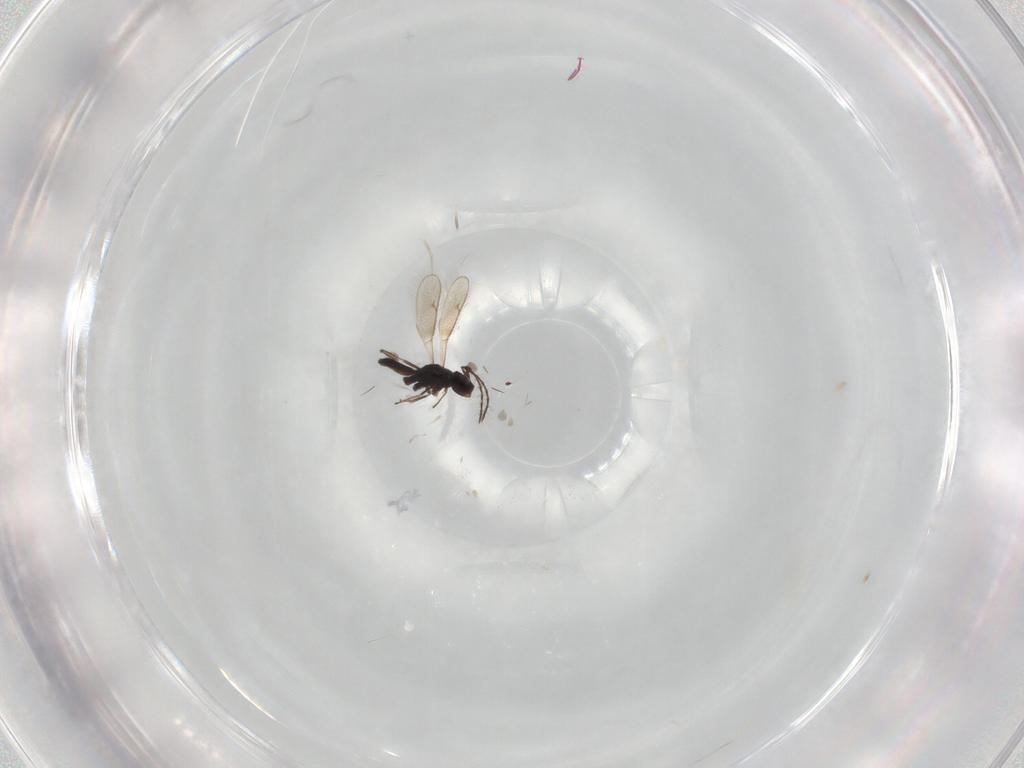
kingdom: Animalia
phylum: Arthropoda
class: Insecta
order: Hymenoptera
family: Pteromalidae
